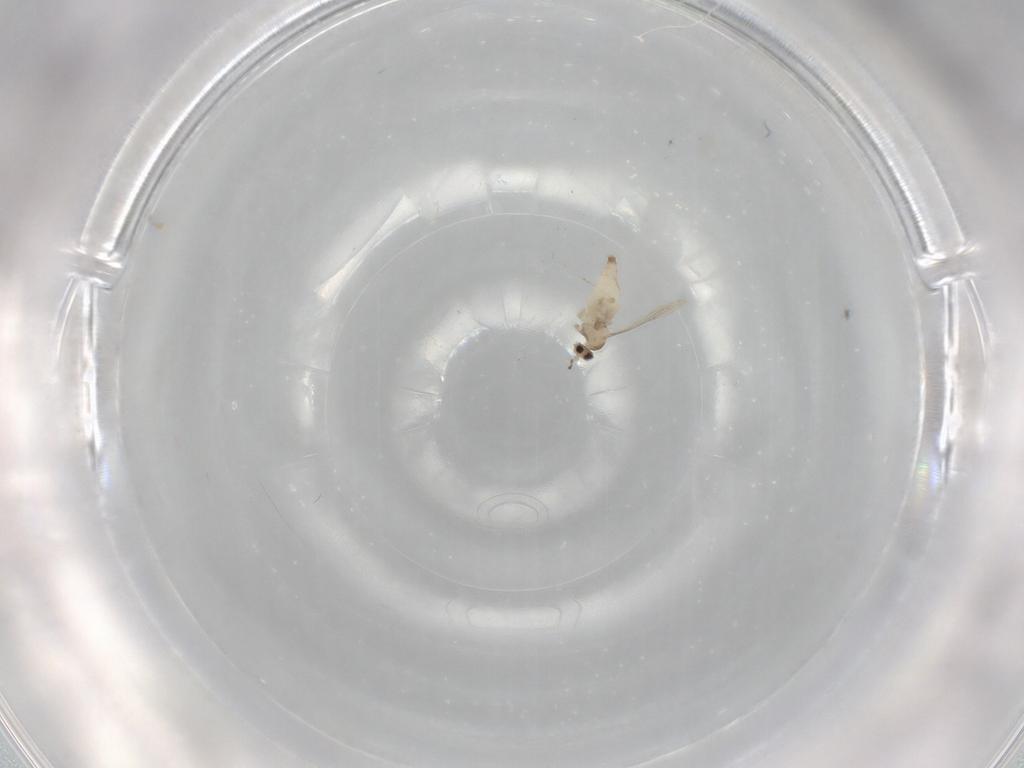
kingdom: Animalia
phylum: Arthropoda
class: Insecta
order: Diptera
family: Cecidomyiidae
